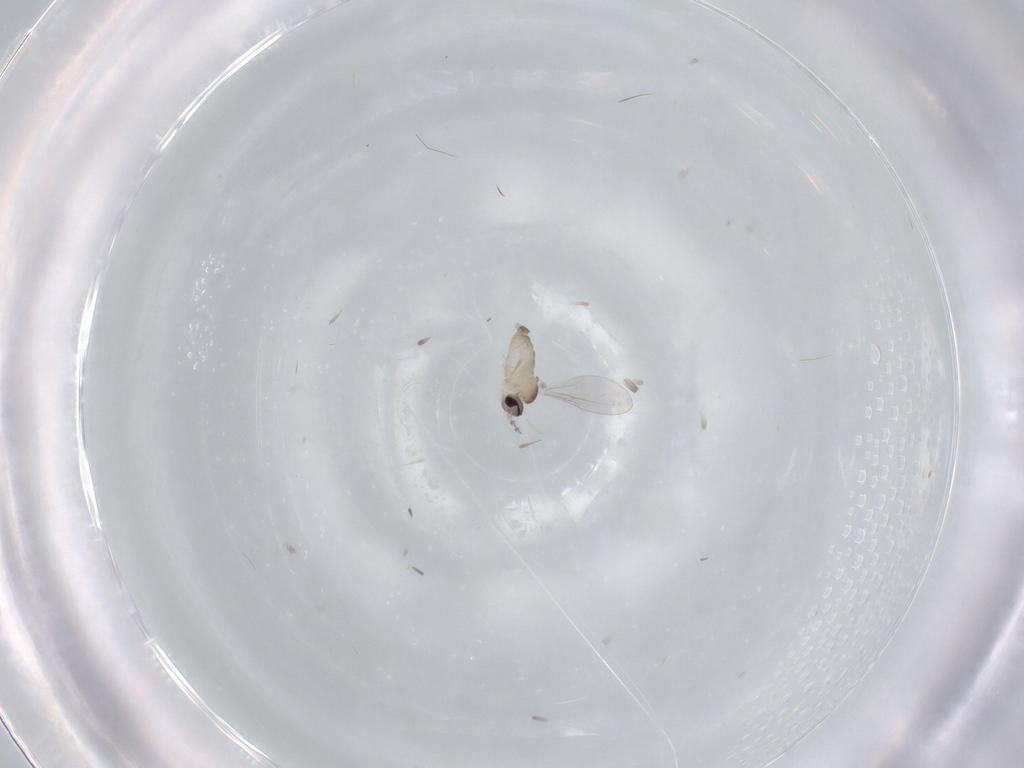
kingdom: Animalia
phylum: Arthropoda
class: Insecta
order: Diptera
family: Cecidomyiidae
